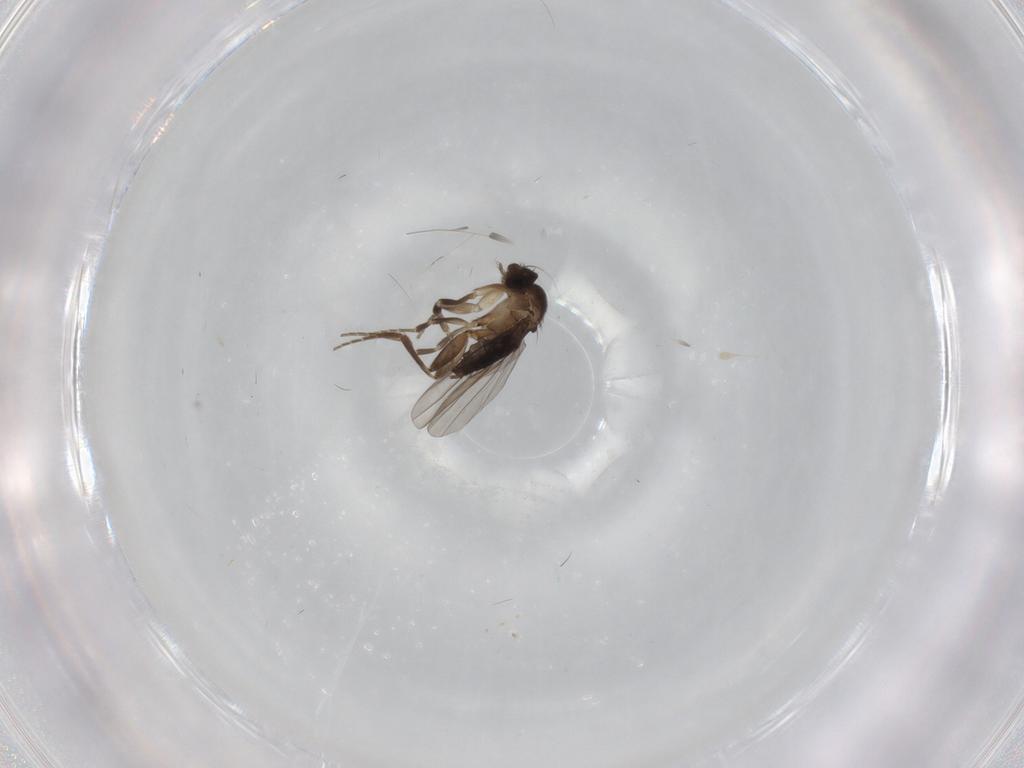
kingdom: Animalia
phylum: Arthropoda
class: Insecta
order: Diptera
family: Phoridae
